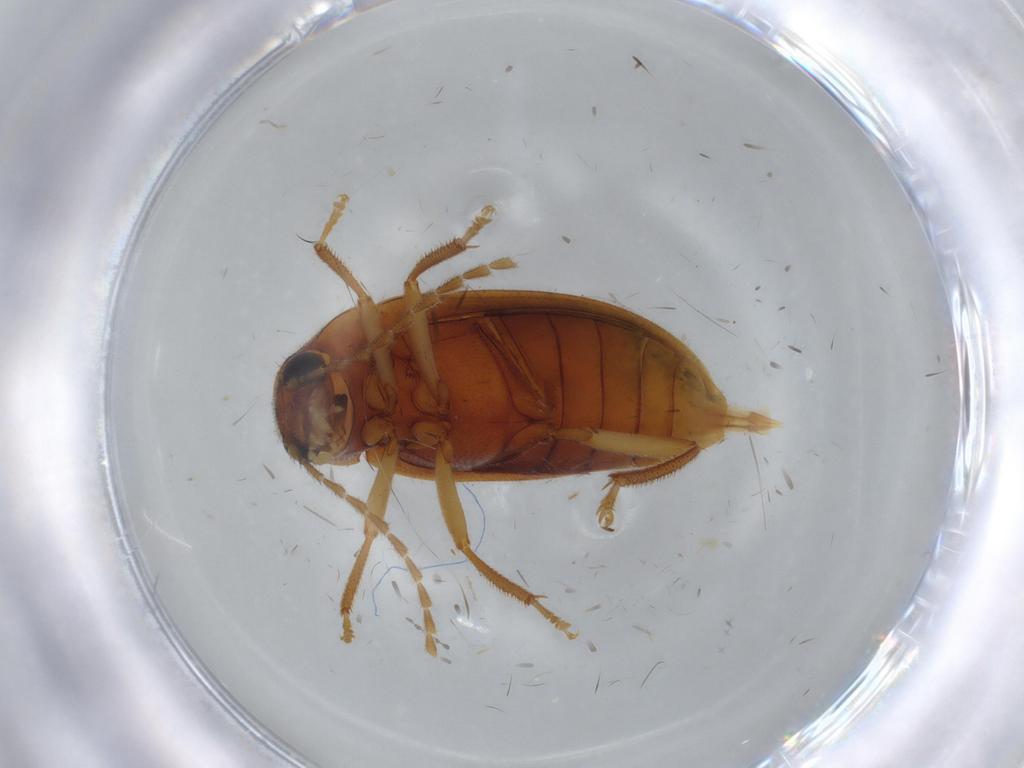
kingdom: Animalia
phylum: Arthropoda
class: Insecta
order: Coleoptera
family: Ptilodactylidae
